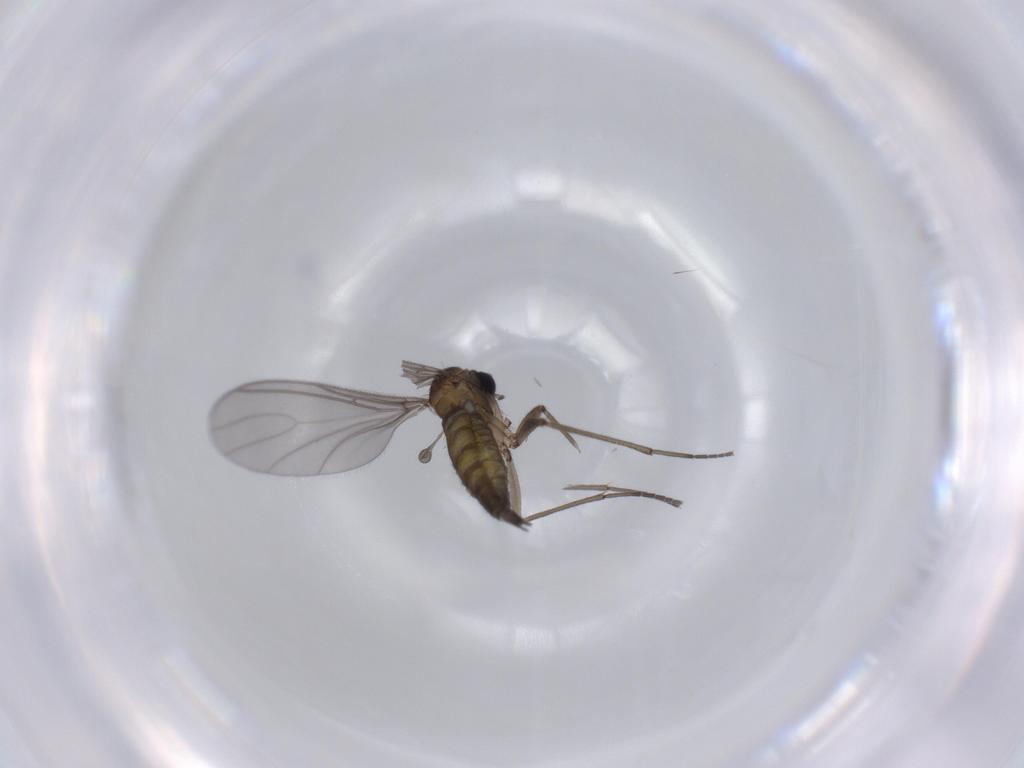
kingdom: Animalia
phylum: Arthropoda
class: Insecta
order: Diptera
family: Sciaridae
